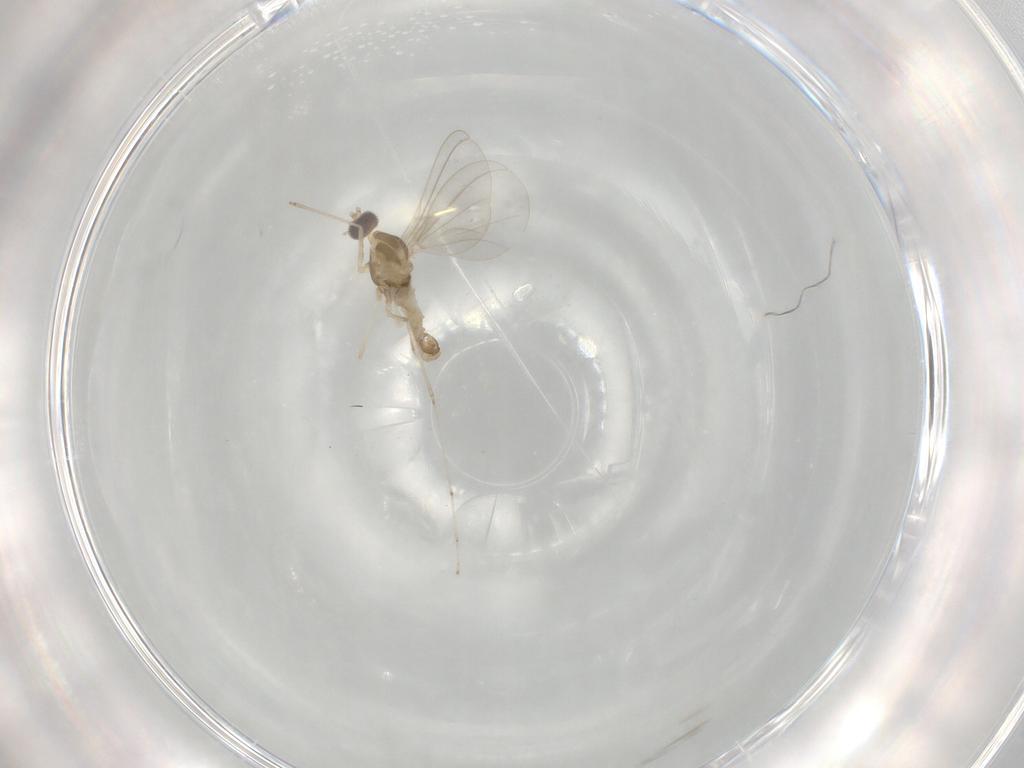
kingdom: Animalia
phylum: Arthropoda
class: Insecta
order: Diptera
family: Cecidomyiidae
